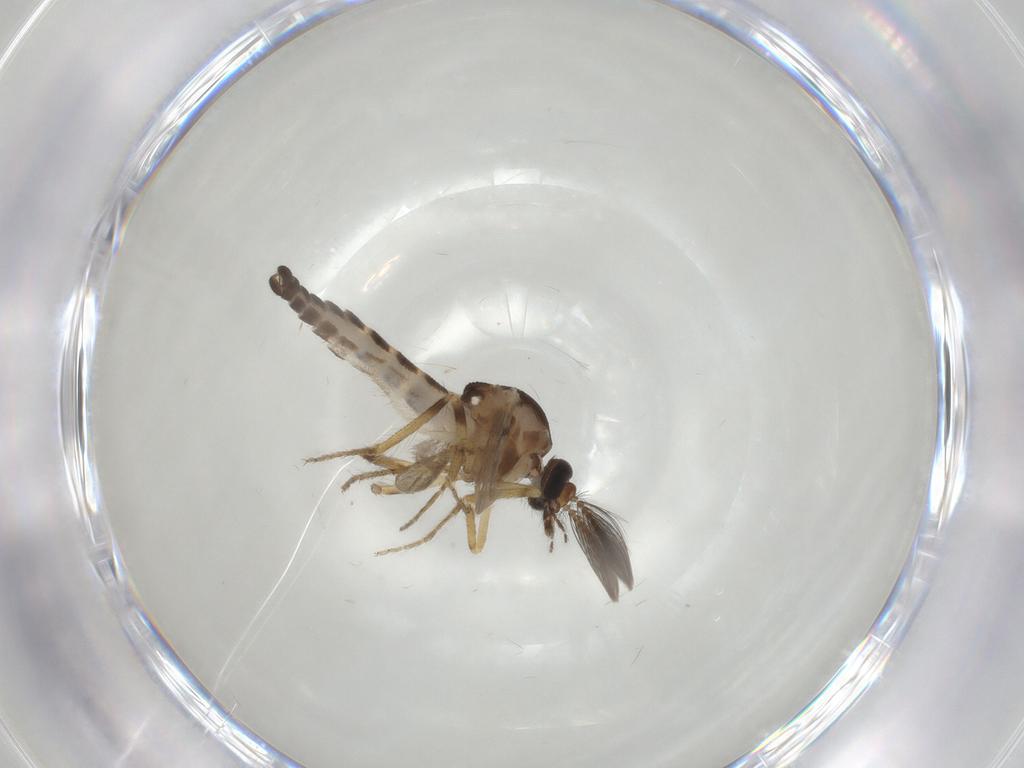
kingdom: Animalia
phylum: Arthropoda
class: Insecta
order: Diptera
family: Ceratopogonidae
